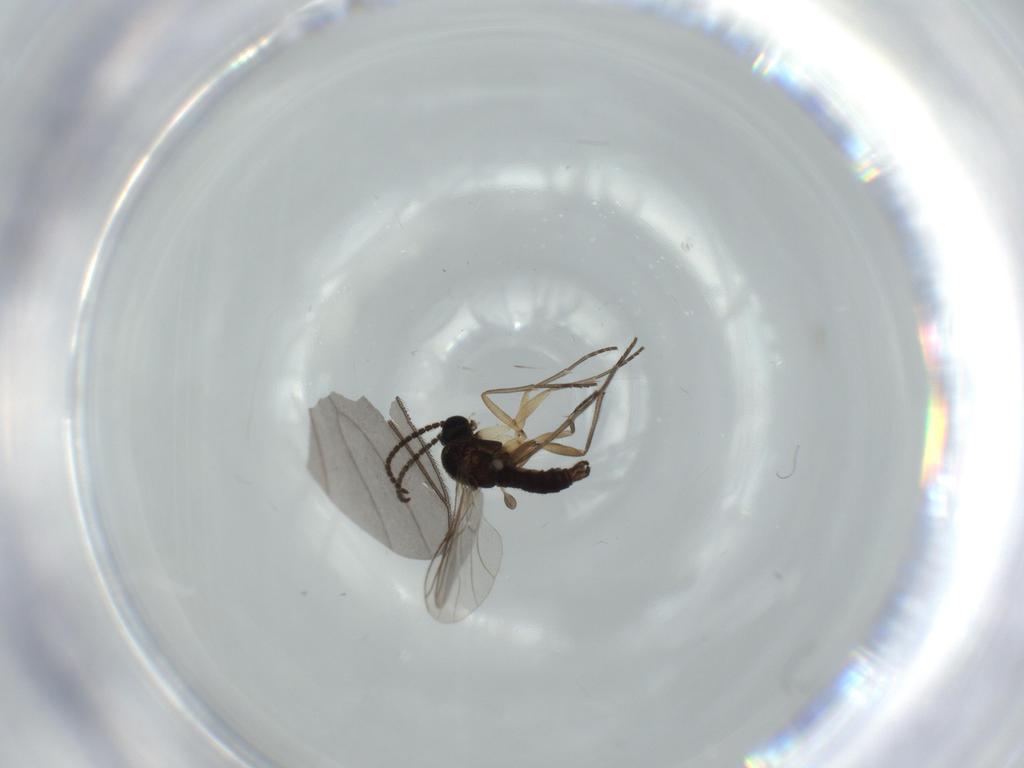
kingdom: Animalia
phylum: Arthropoda
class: Insecta
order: Diptera
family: Sciaridae
